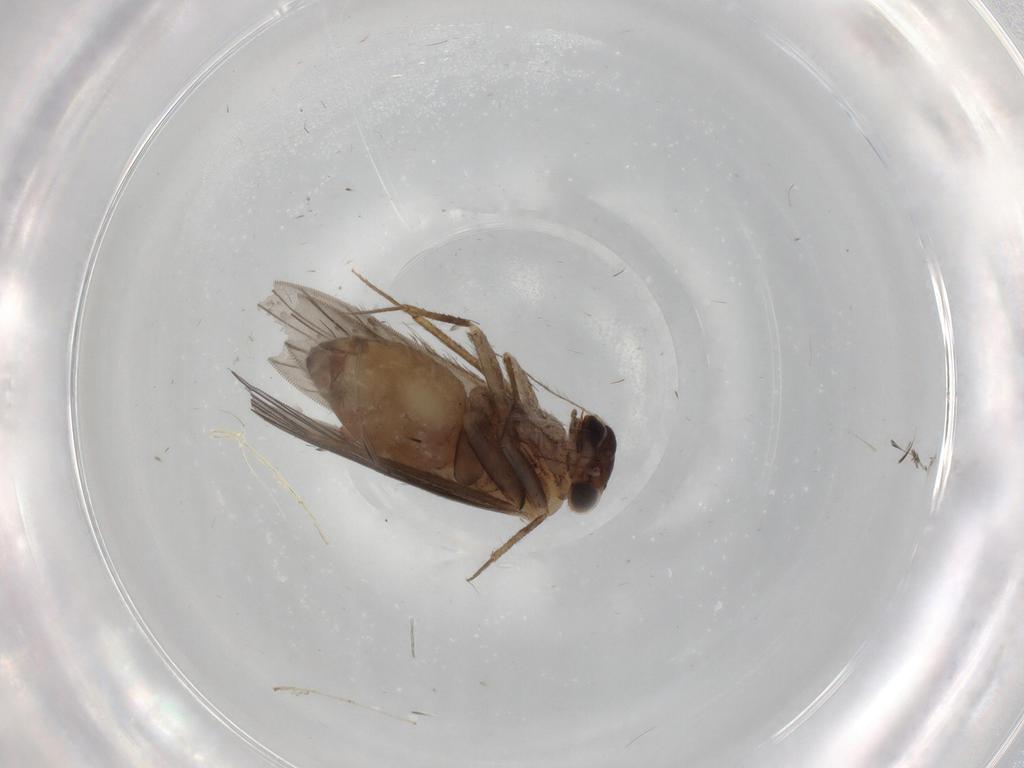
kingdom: Animalia
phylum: Arthropoda
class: Insecta
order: Psocodea
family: Lepidopsocidae
